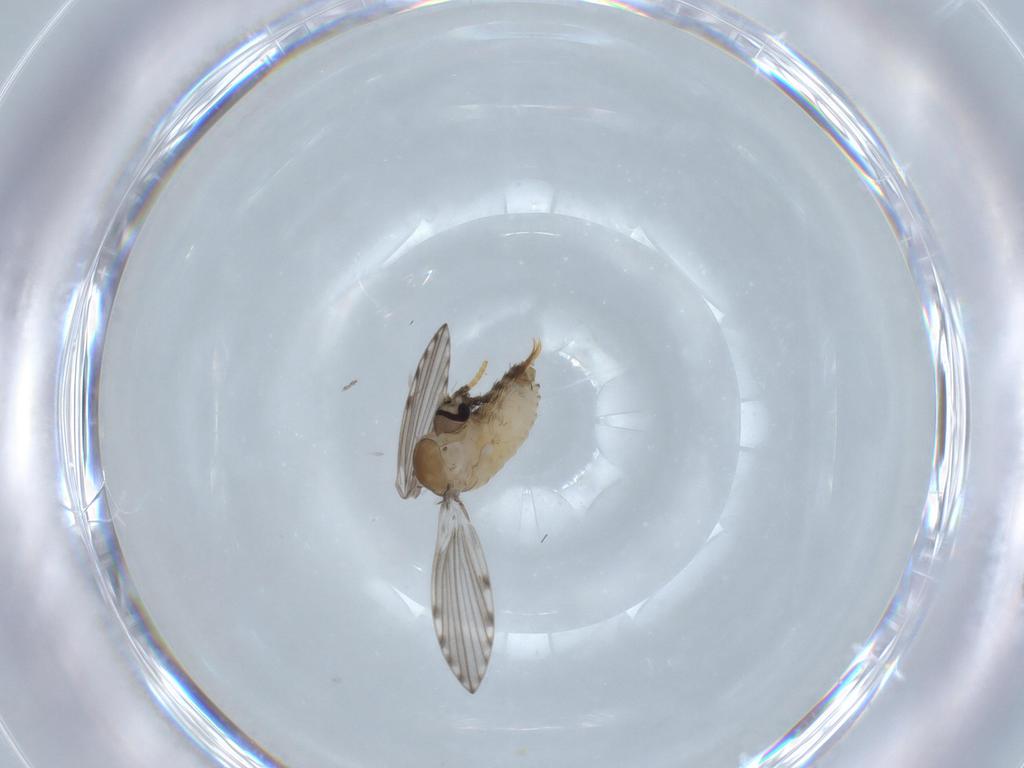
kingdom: Animalia
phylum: Arthropoda
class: Insecta
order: Diptera
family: Psychodidae
